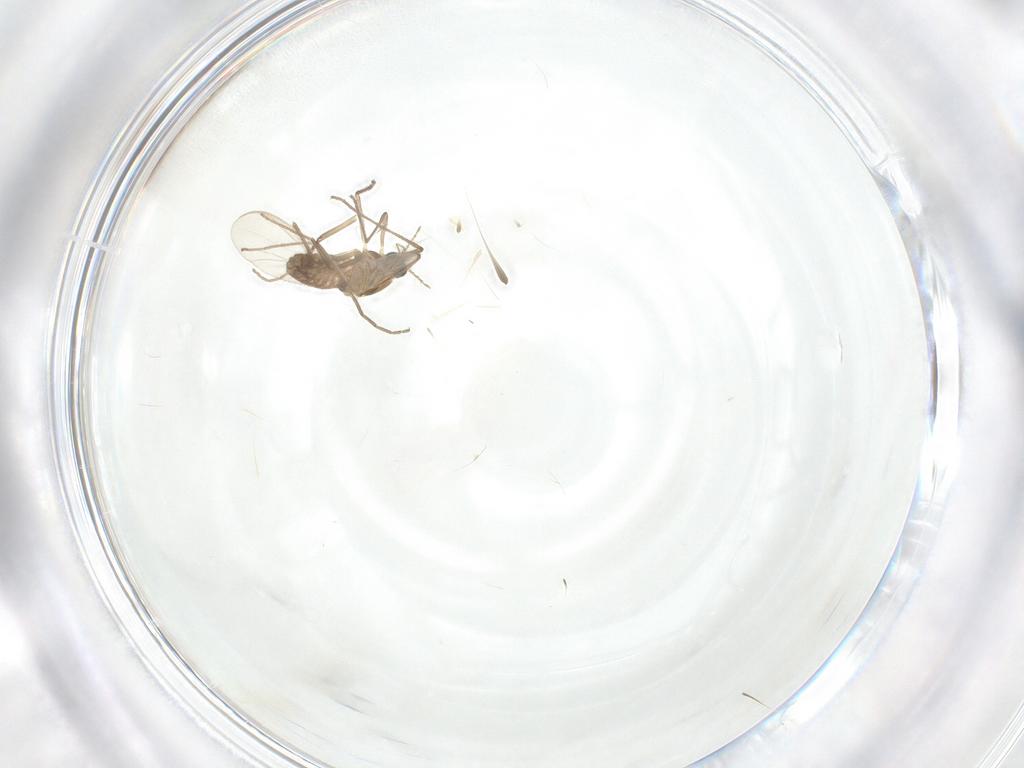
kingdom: Animalia
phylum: Arthropoda
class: Insecta
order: Diptera
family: Chironomidae
